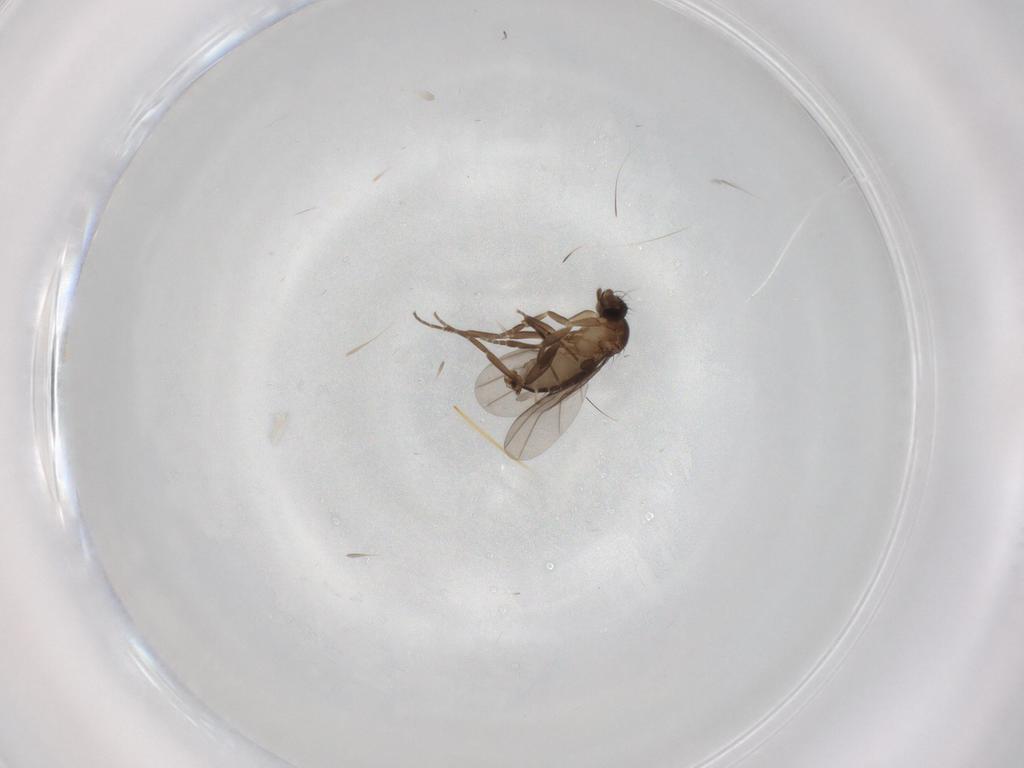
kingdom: Animalia
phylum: Arthropoda
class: Insecta
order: Diptera
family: Phoridae
